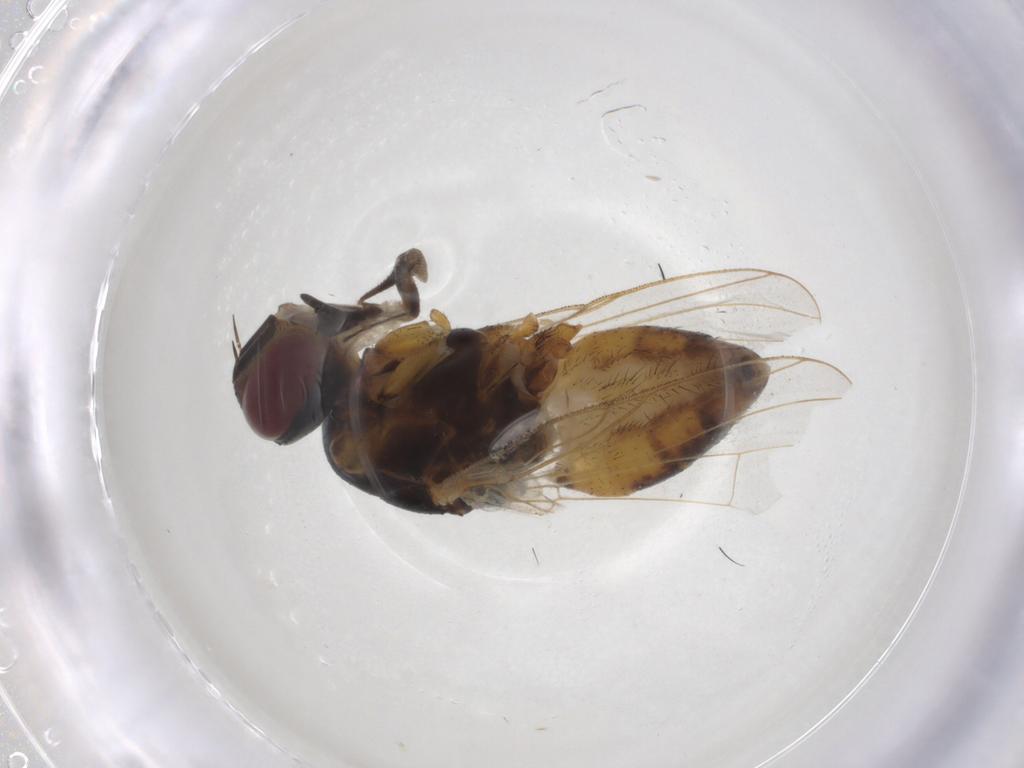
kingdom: Animalia
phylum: Arthropoda
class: Insecta
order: Diptera
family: Muscidae
